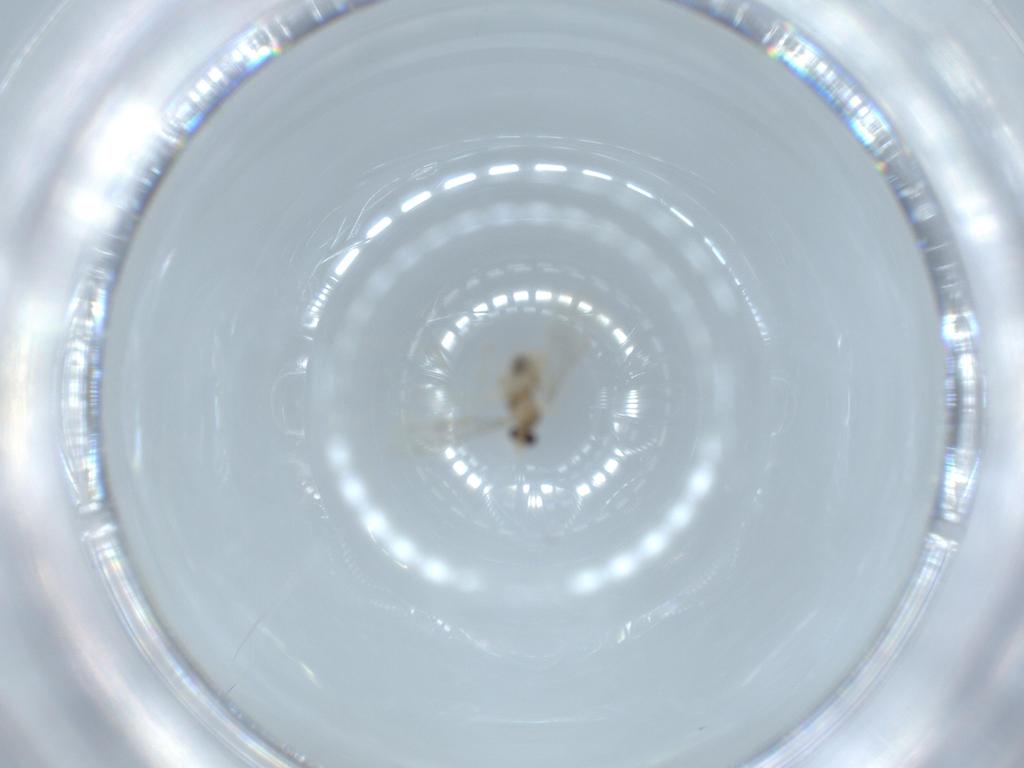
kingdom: Animalia
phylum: Arthropoda
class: Insecta
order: Diptera
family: Cecidomyiidae
